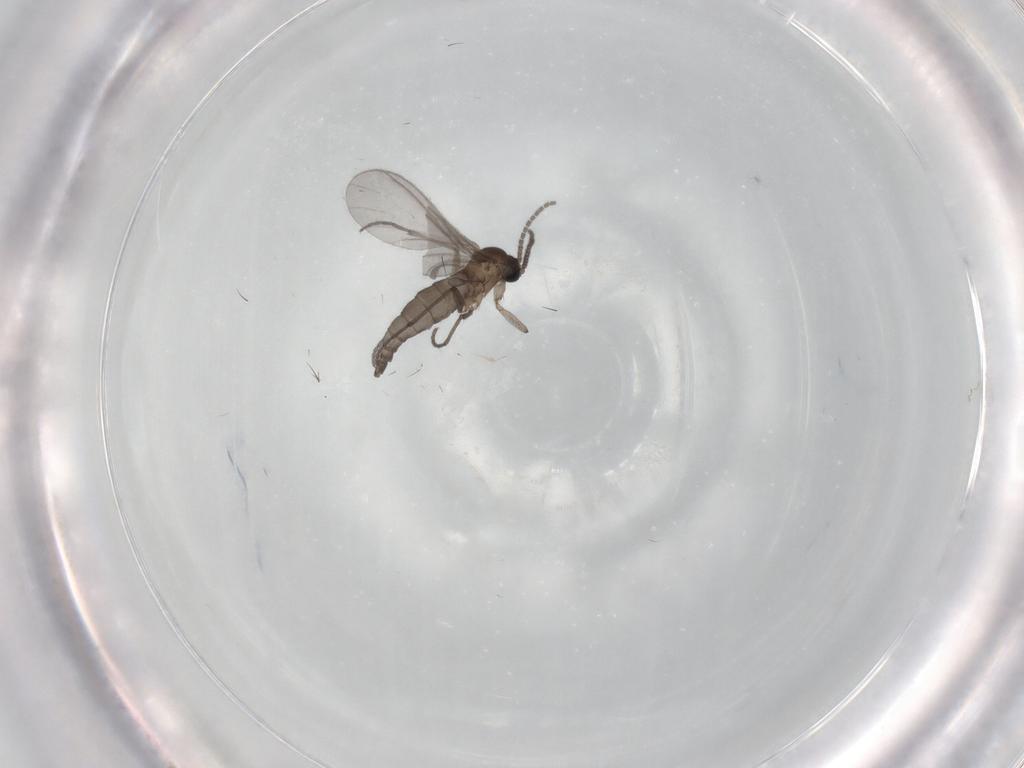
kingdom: Animalia
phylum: Arthropoda
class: Insecta
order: Diptera
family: Sciaridae
